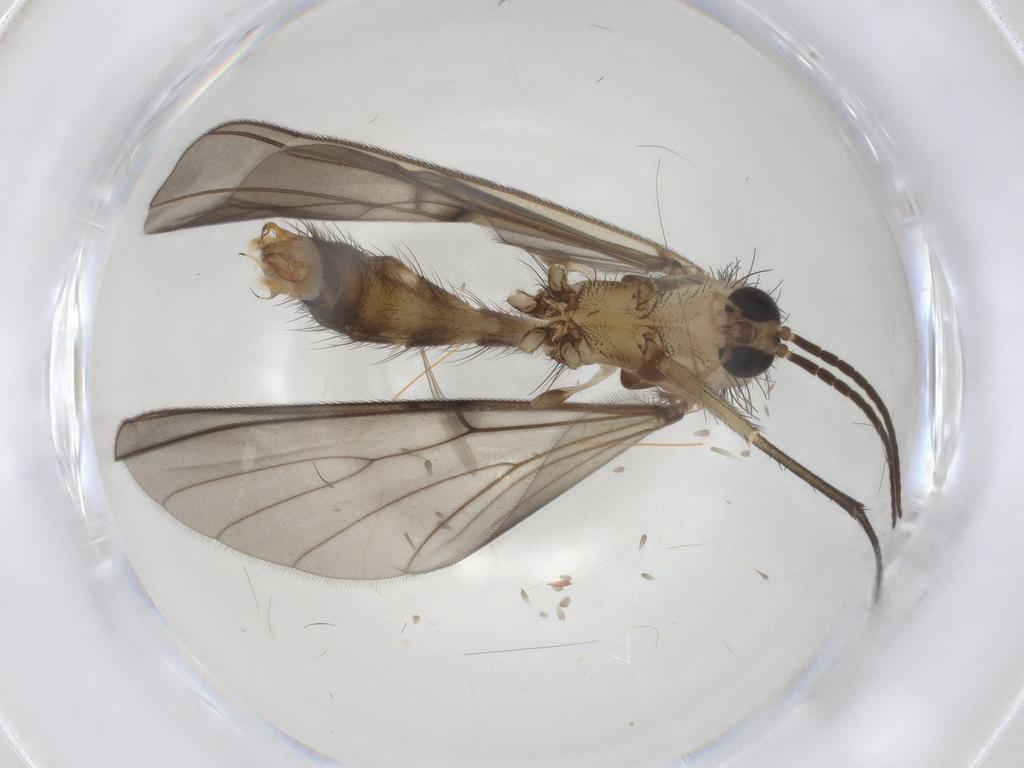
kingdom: Animalia
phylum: Arthropoda
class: Insecta
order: Diptera
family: Mycetophilidae
